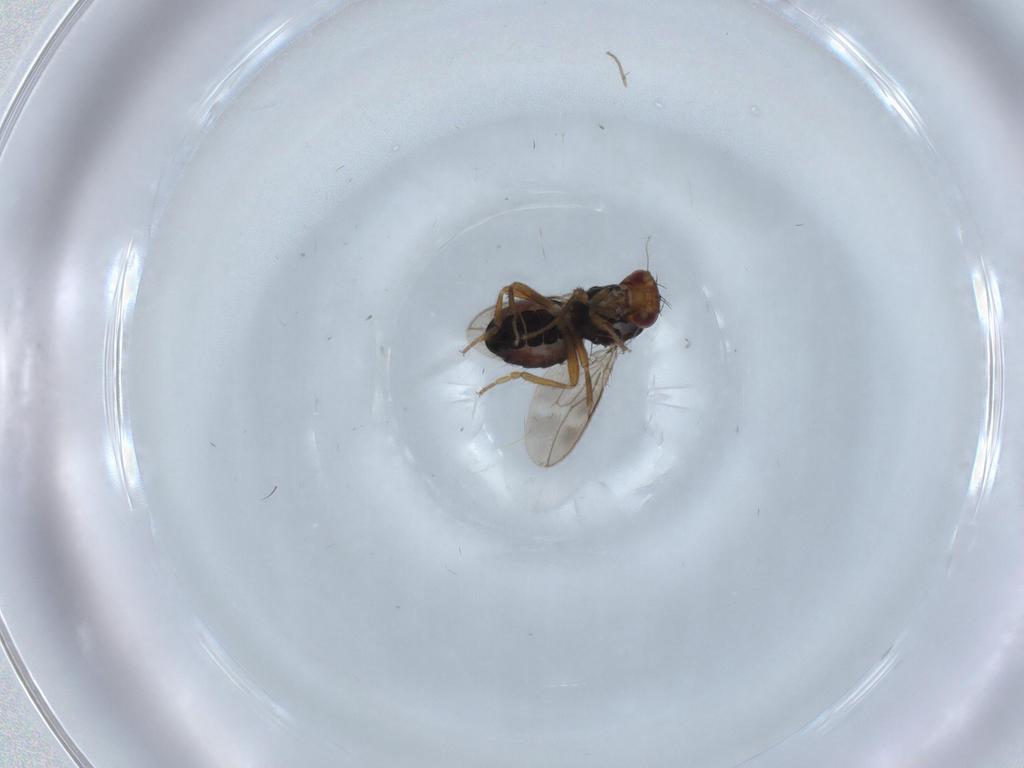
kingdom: Animalia
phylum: Arthropoda
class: Insecta
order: Diptera
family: Sphaeroceridae
